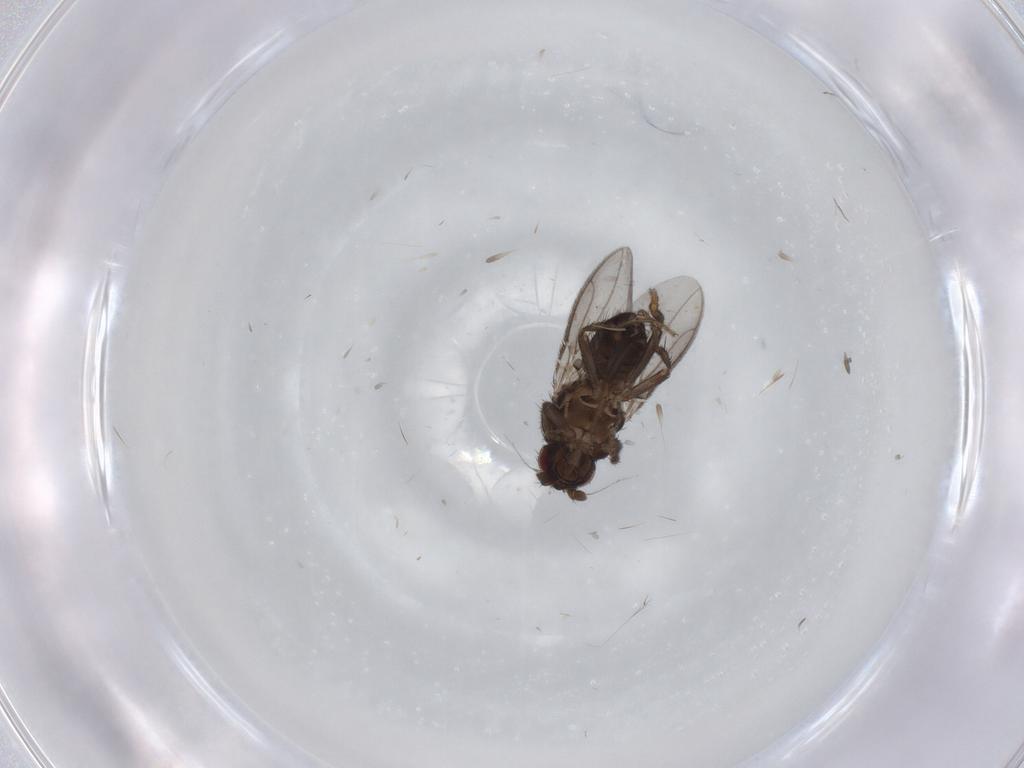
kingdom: Animalia
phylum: Arthropoda
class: Insecta
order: Diptera
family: Sphaeroceridae
